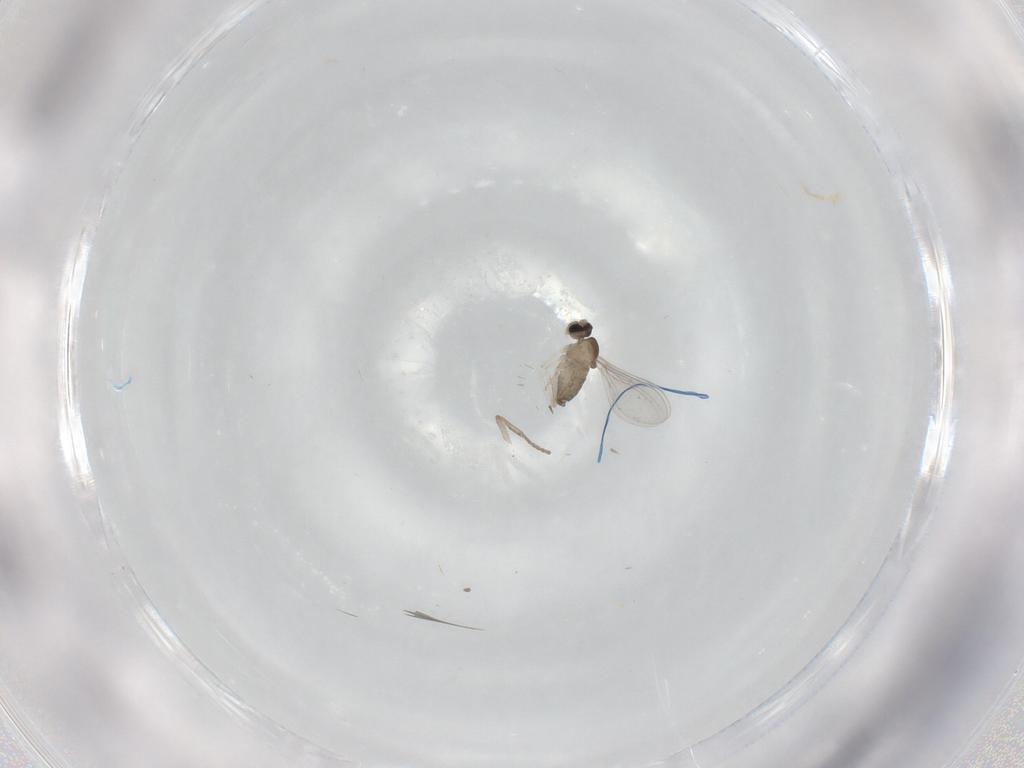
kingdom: Animalia
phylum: Arthropoda
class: Insecta
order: Diptera
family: Cecidomyiidae
